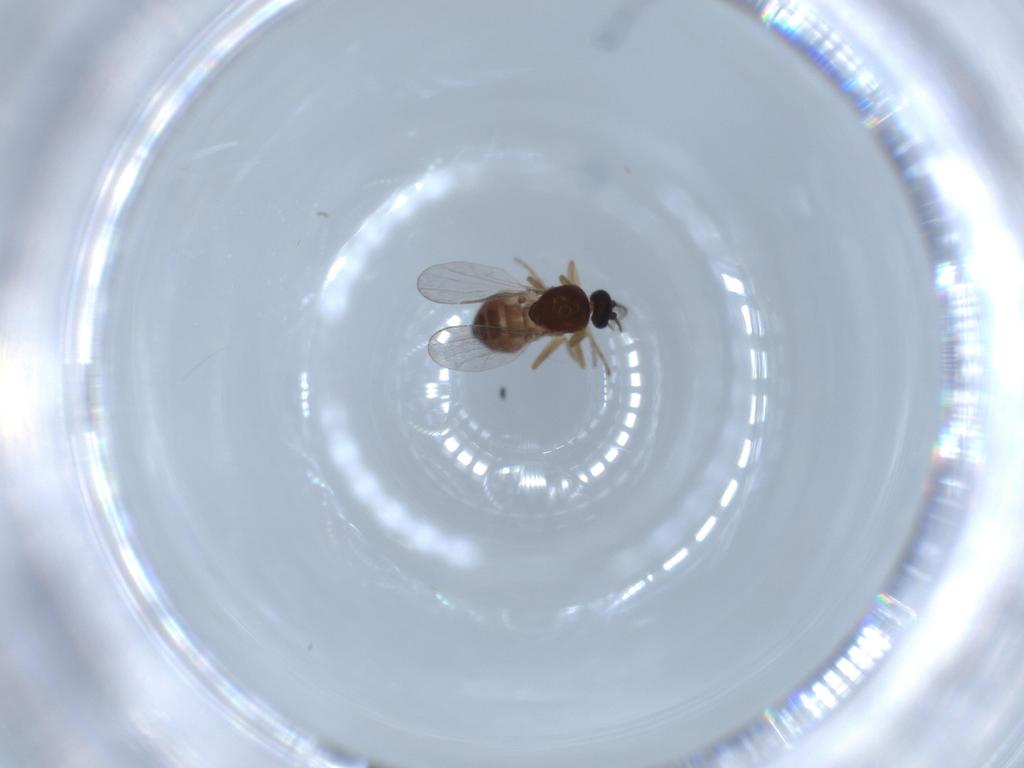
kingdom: Animalia
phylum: Arthropoda
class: Insecta
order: Diptera
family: Ceratopogonidae
